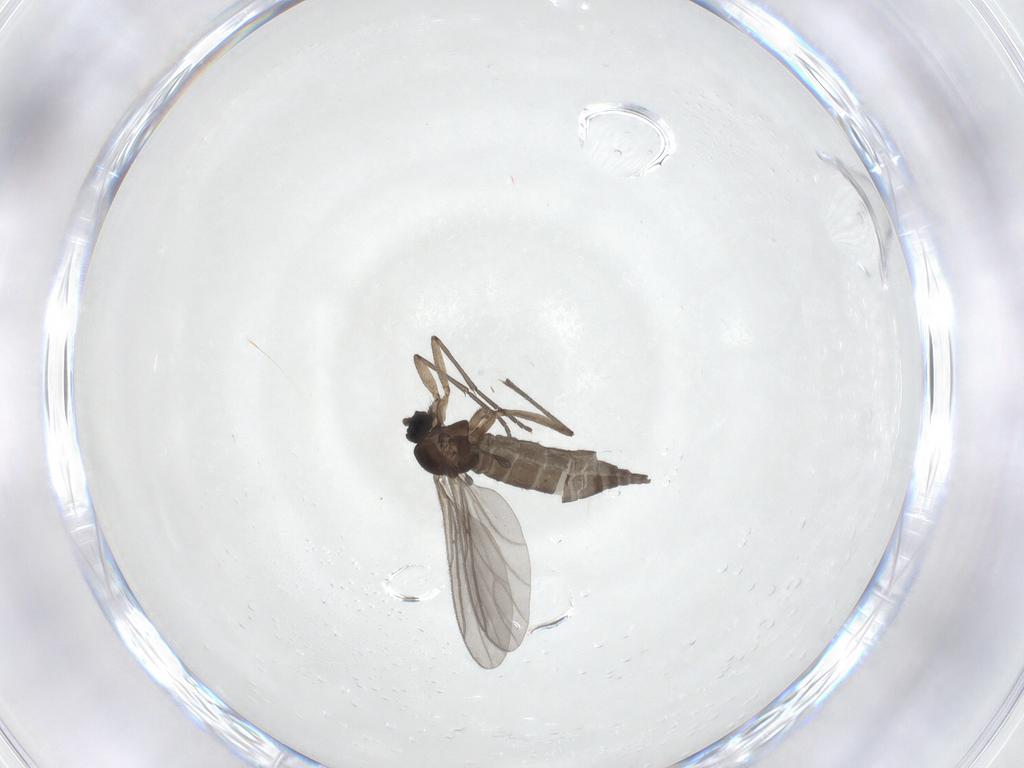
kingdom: Animalia
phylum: Arthropoda
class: Insecta
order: Diptera
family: Sciaridae
